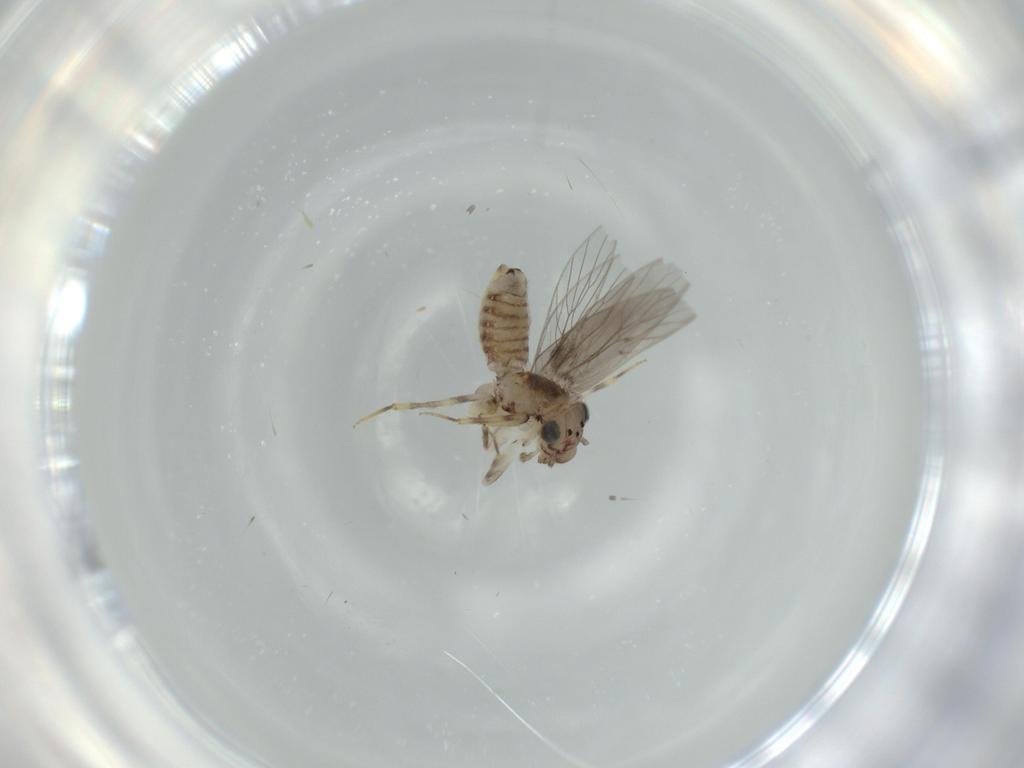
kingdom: Animalia
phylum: Arthropoda
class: Insecta
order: Psocodea
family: Lepidopsocidae
